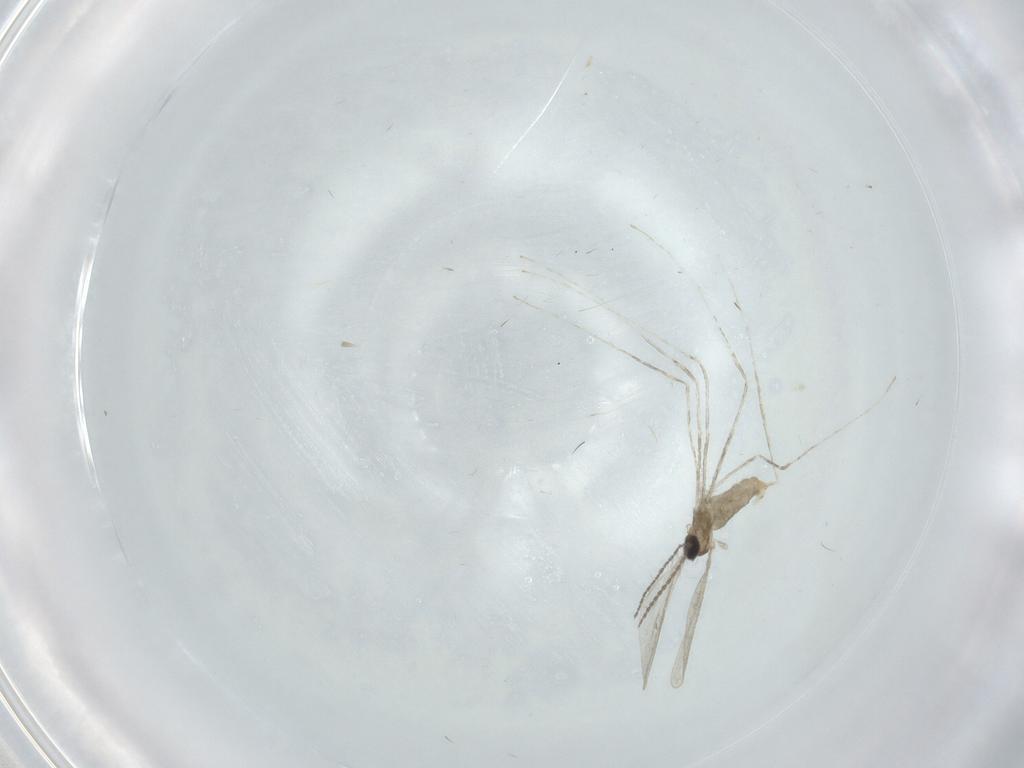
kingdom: Animalia
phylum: Arthropoda
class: Insecta
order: Diptera
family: Cecidomyiidae
